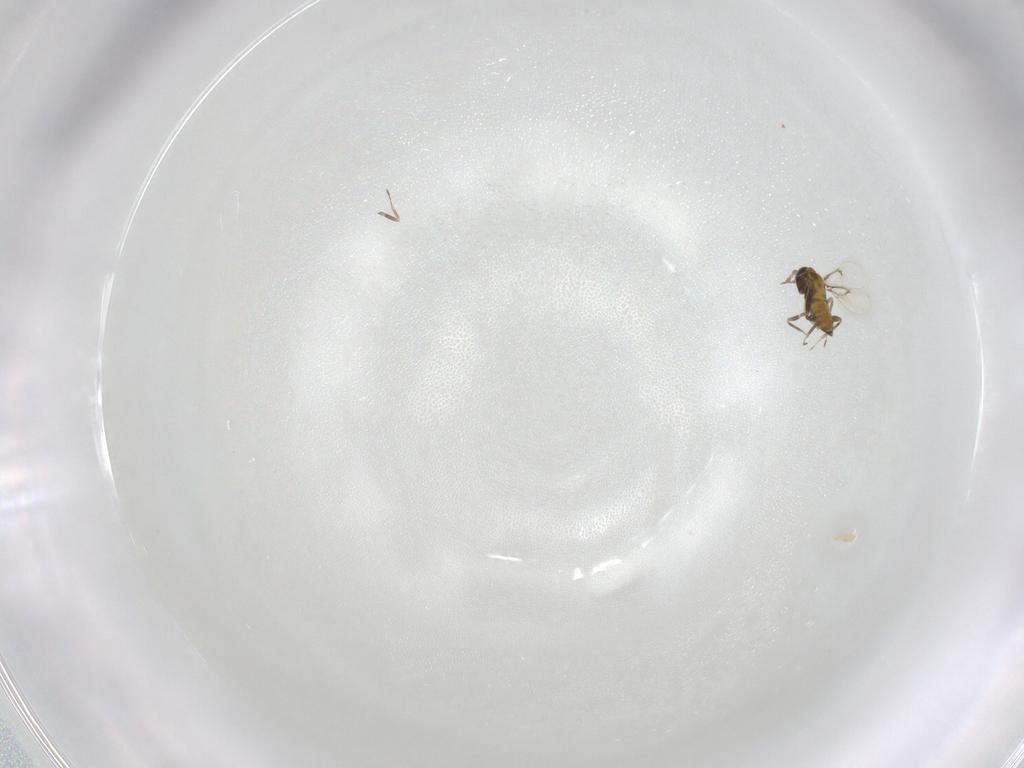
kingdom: Animalia
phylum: Arthropoda
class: Insecta
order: Hymenoptera
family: Trichogrammatidae
